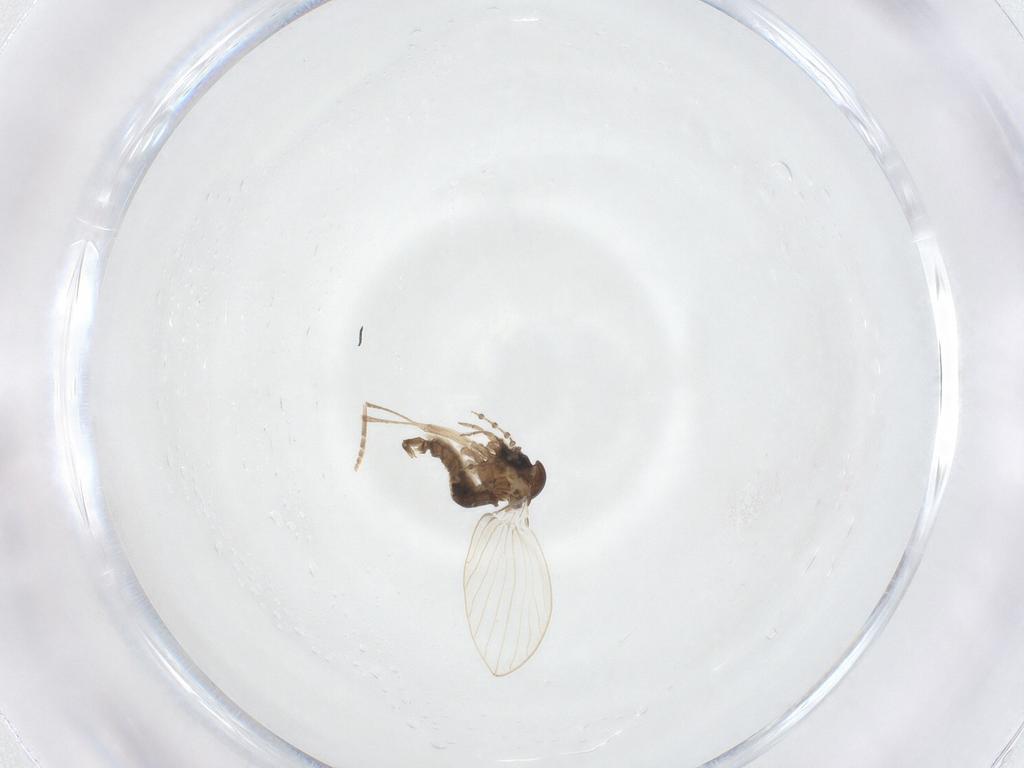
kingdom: Animalia
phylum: Arthropoda
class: Insecta
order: Diptera
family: Psychodidae
